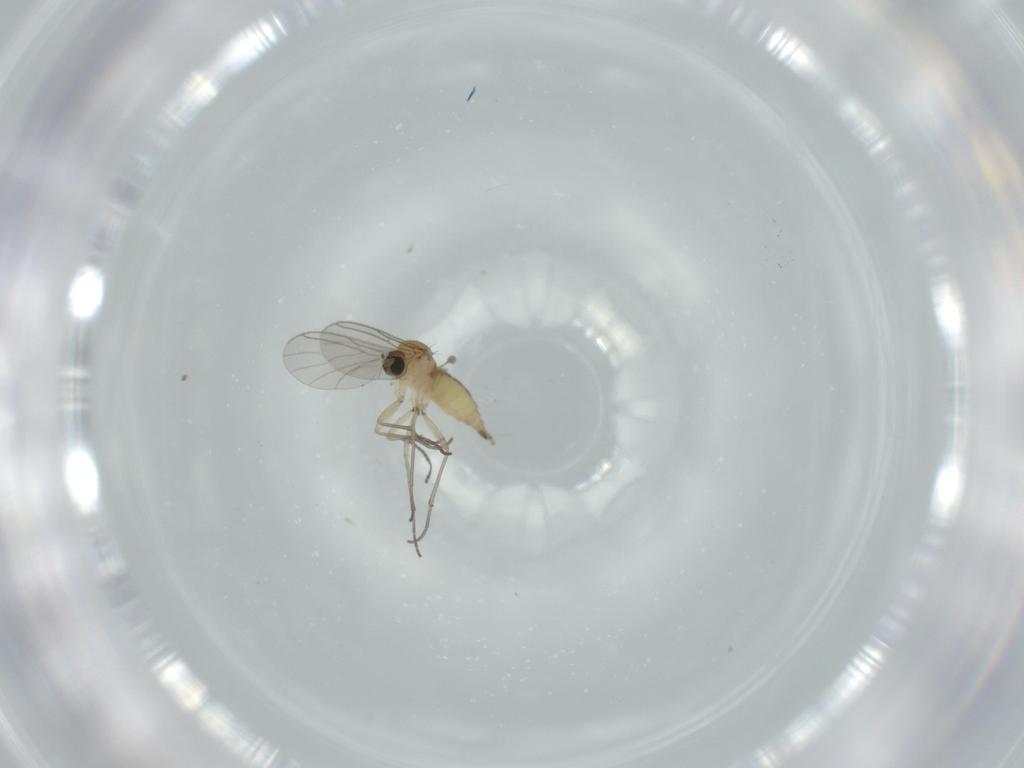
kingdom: Animalia
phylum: Arthropoda
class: Insecta
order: Diptera
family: Sciaridae
